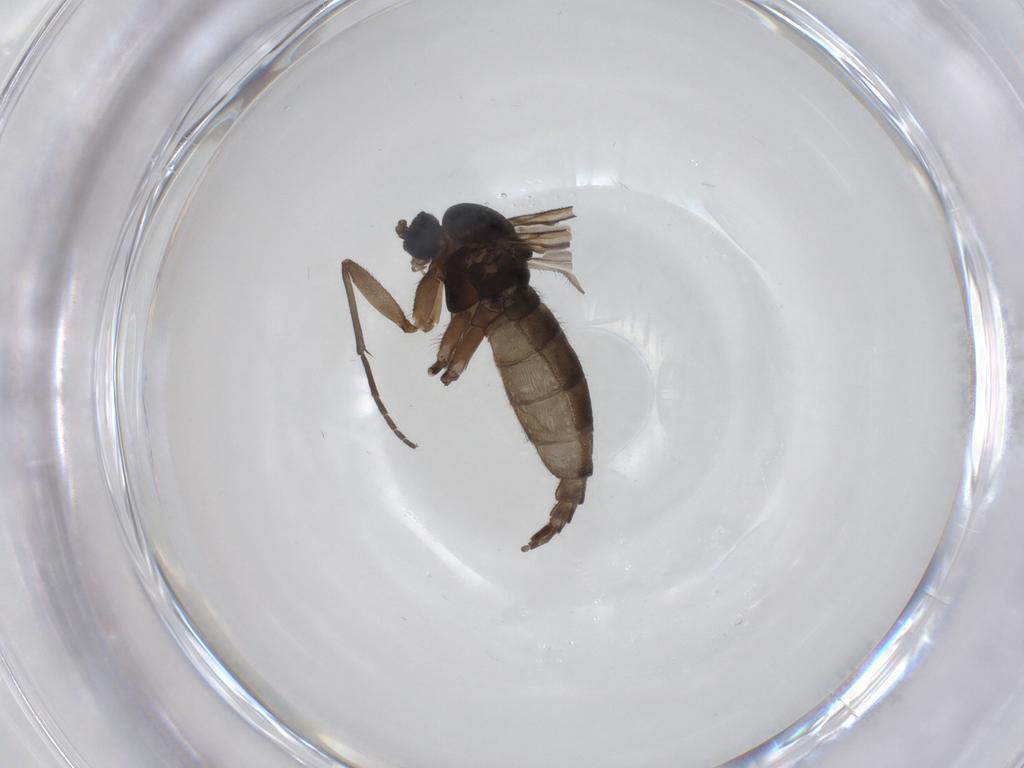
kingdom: Animalia
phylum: Arthropoda
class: Insecta
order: Diptera
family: Sciaridae
